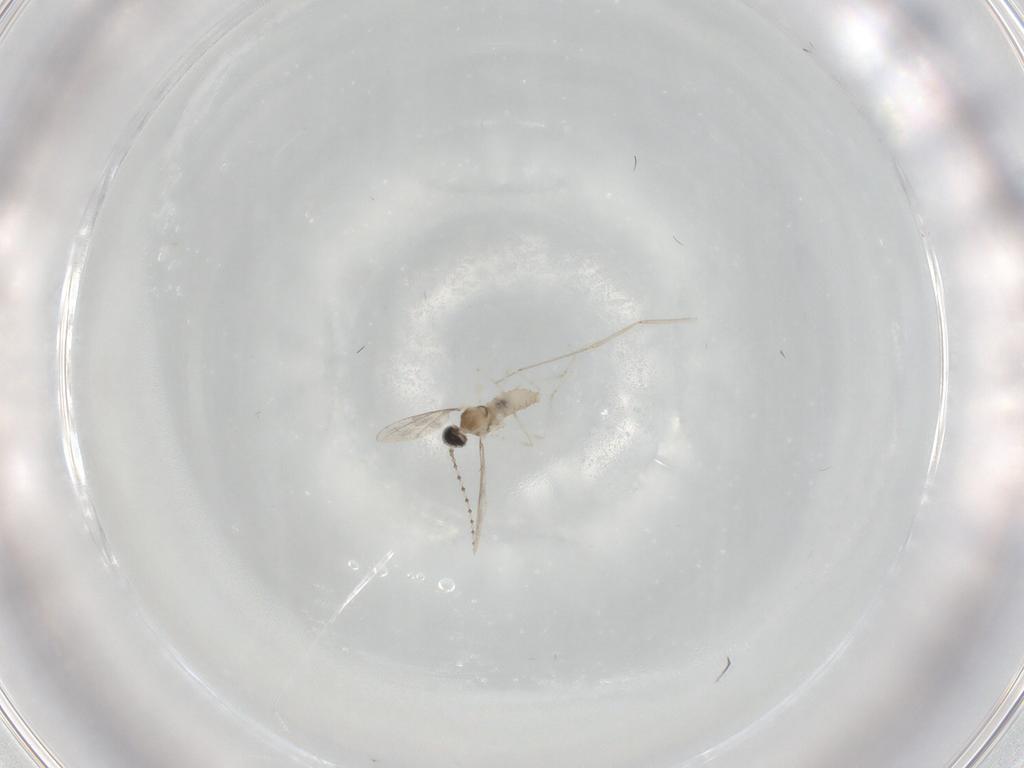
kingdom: Animalia
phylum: Arthropoda
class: Insecta
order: Diptera
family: Cecidomyiidae
